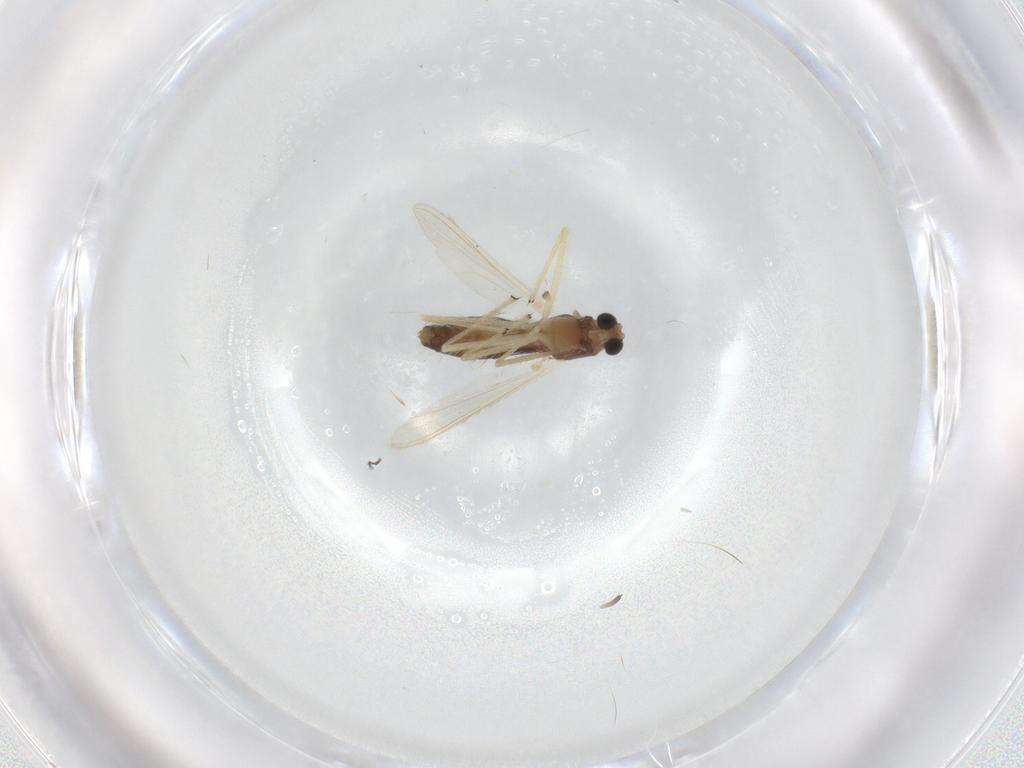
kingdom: Animalia
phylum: Arthropoda
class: Insecta
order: Diptera
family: Chironomidae
